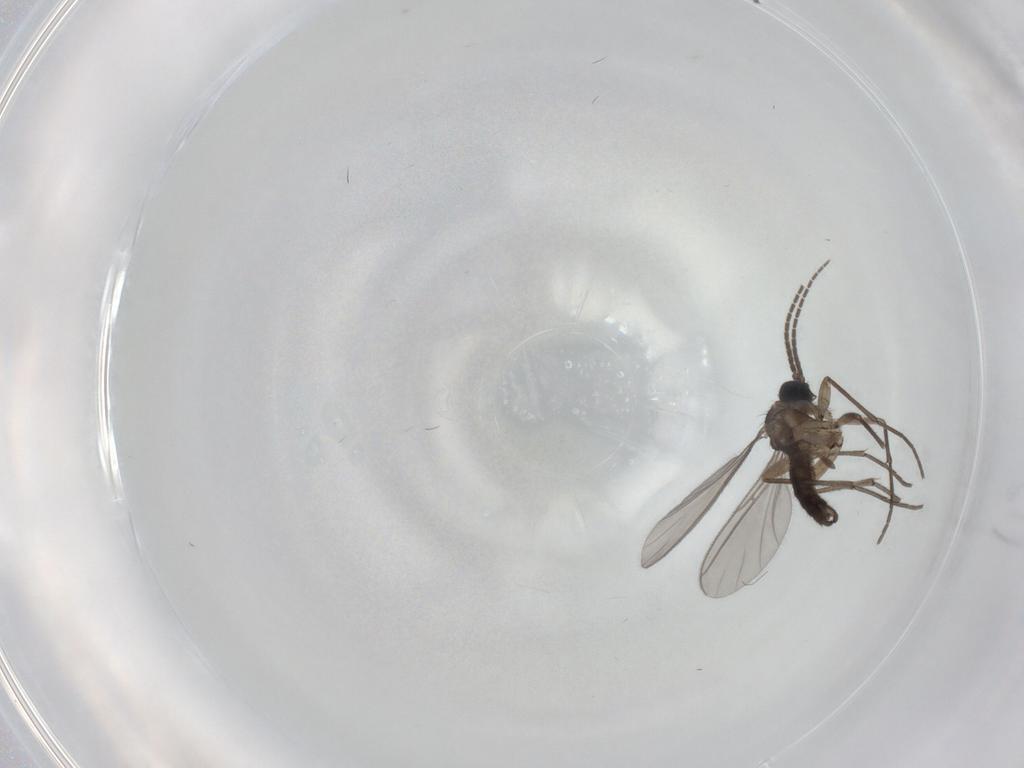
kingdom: Animalia
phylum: Arthropoda
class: Insecta
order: Diptera
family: Sciaridae
